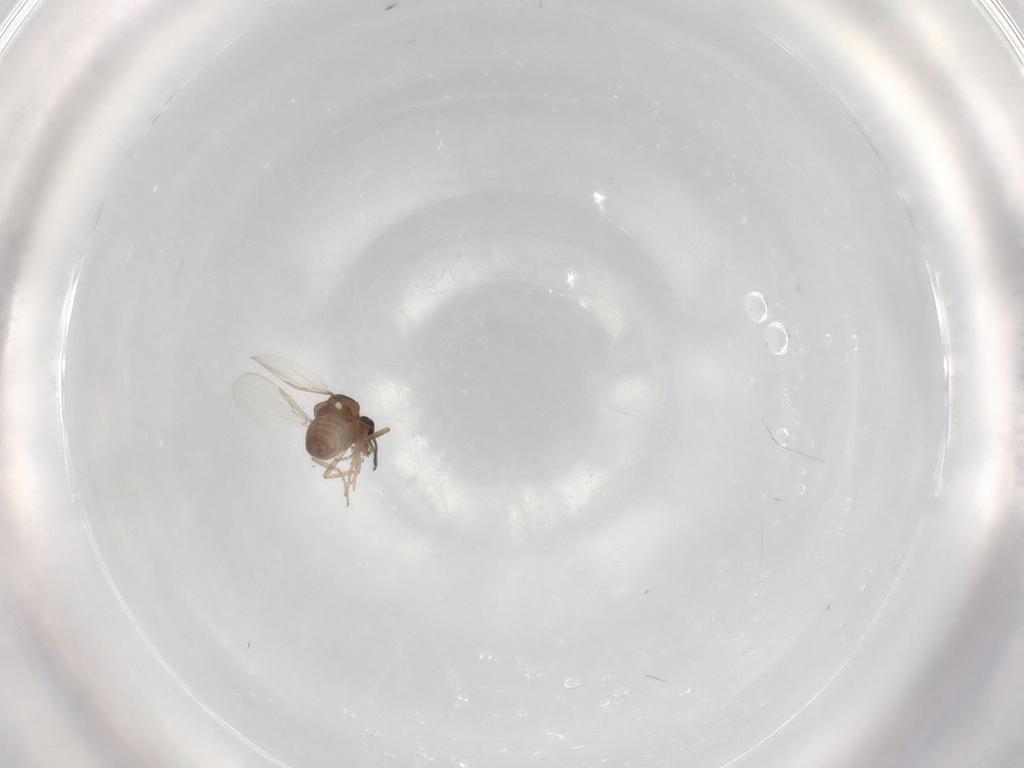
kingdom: Animalia
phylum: Arthropoda
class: Insecta
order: Diptera
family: Ceratopogonidae
